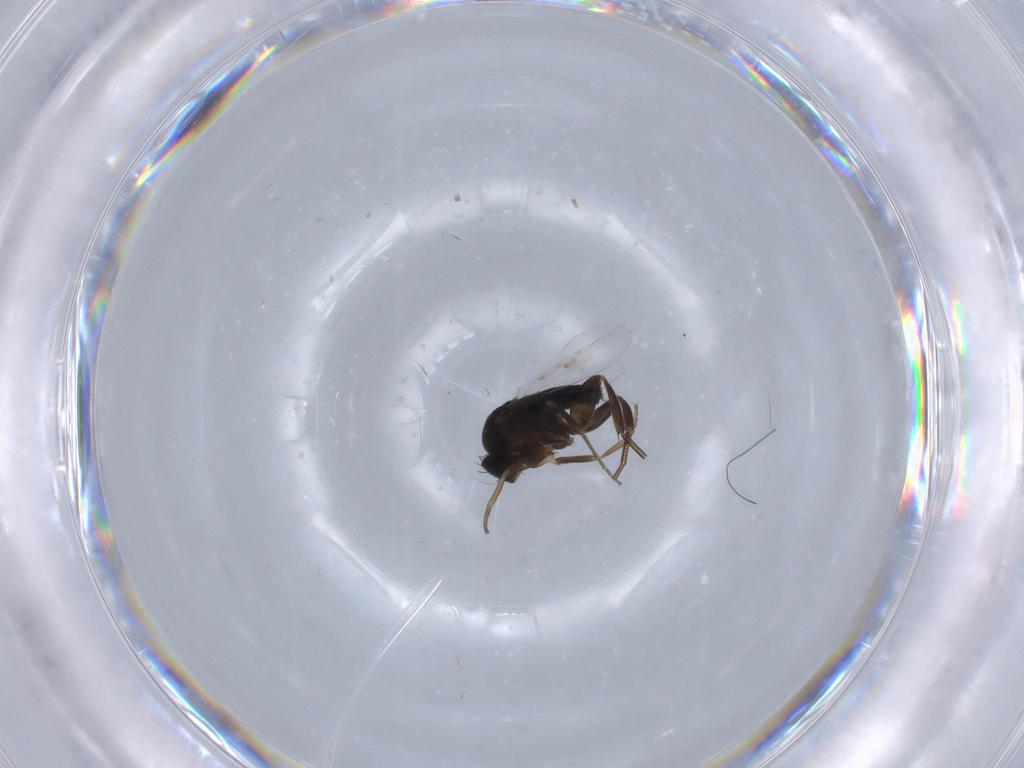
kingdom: Animalia
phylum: Arthropoda
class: Insecta
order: Diptera
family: Phoridae
